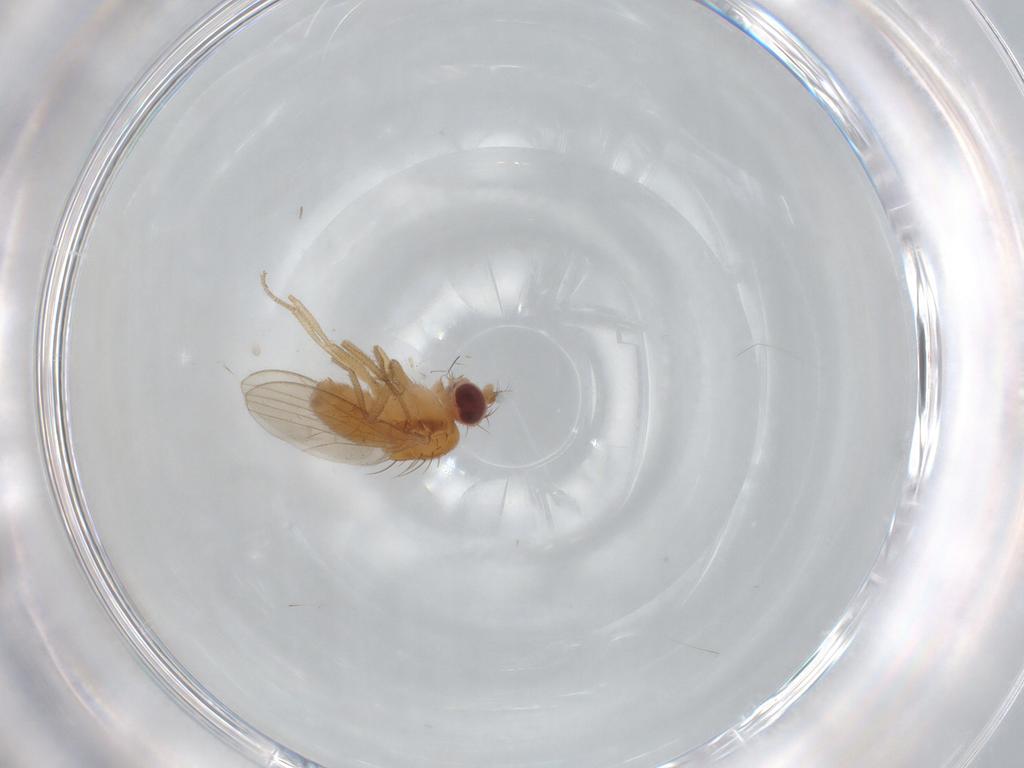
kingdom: Animalia
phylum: Arthropoda
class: Insecta
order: Diptera
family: Drosophilidae
